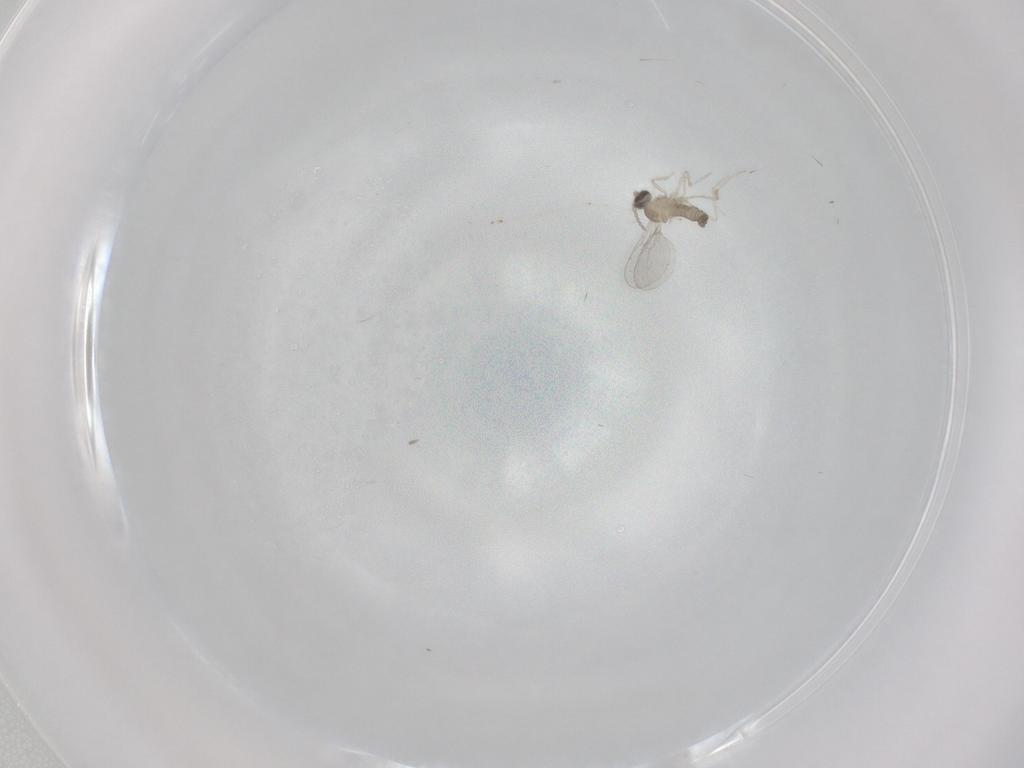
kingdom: Animalia
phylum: Arthropoda
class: Insecta
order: Diptera
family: Cecidomyiidae
